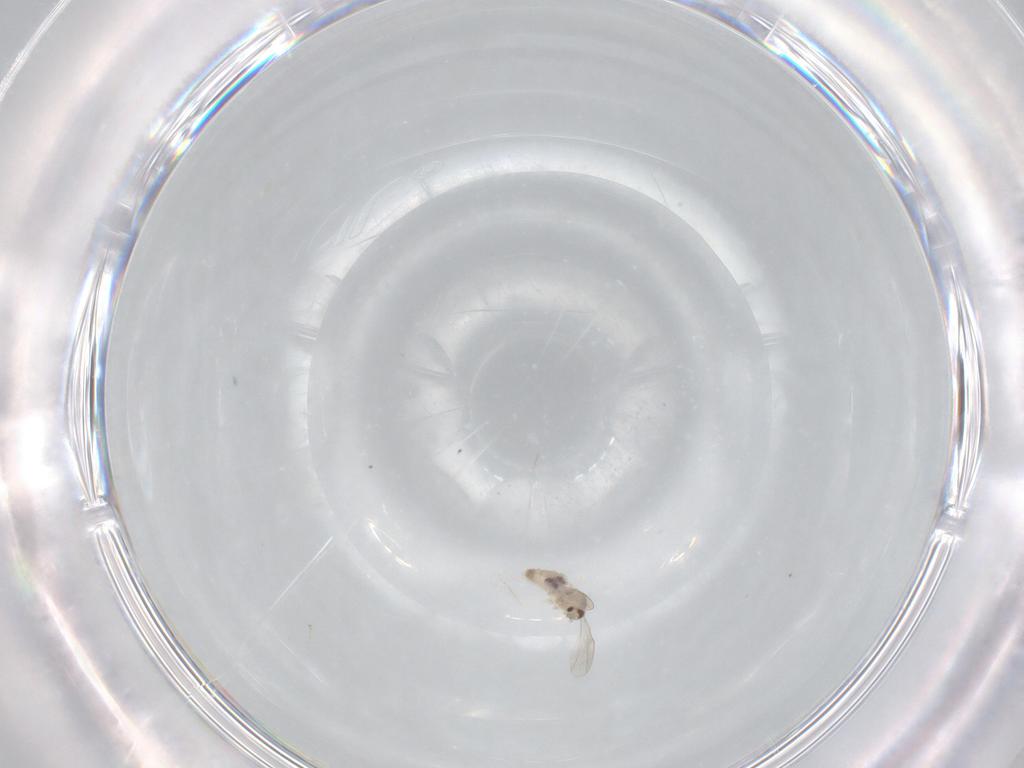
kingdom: Animalia
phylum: Arthropoda
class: Insecta
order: Diptera
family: Cecidomyiidae
